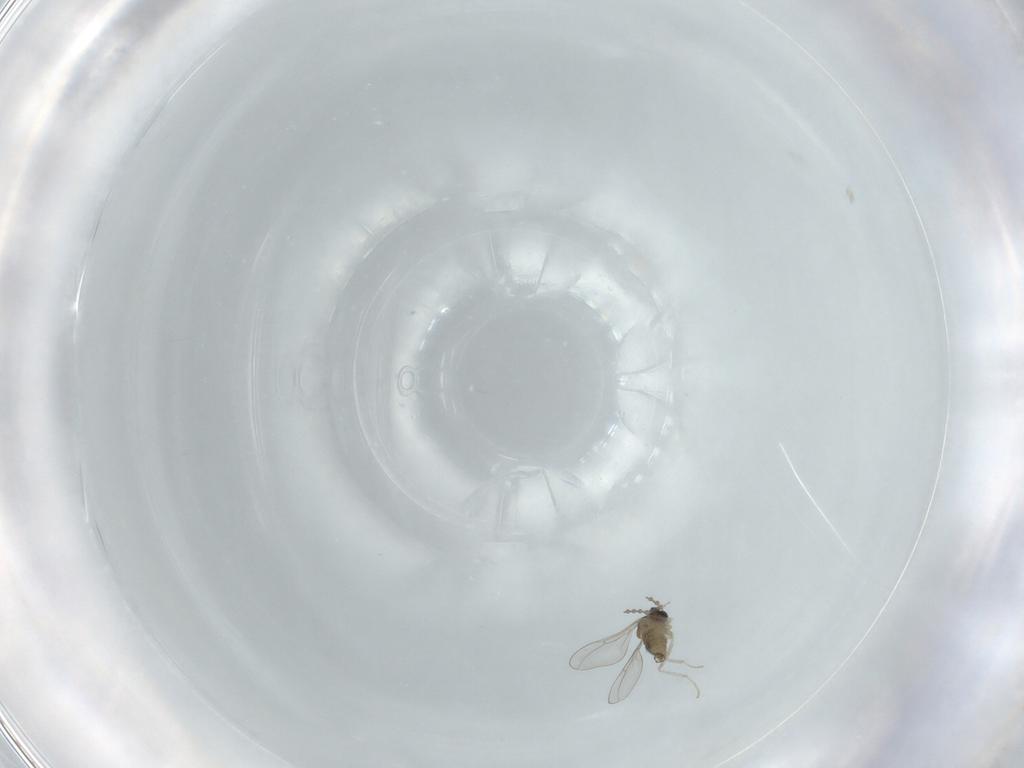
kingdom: Animalia
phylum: Arthropoda
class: Insecta
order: Diptera
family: Cecidomyiidae
